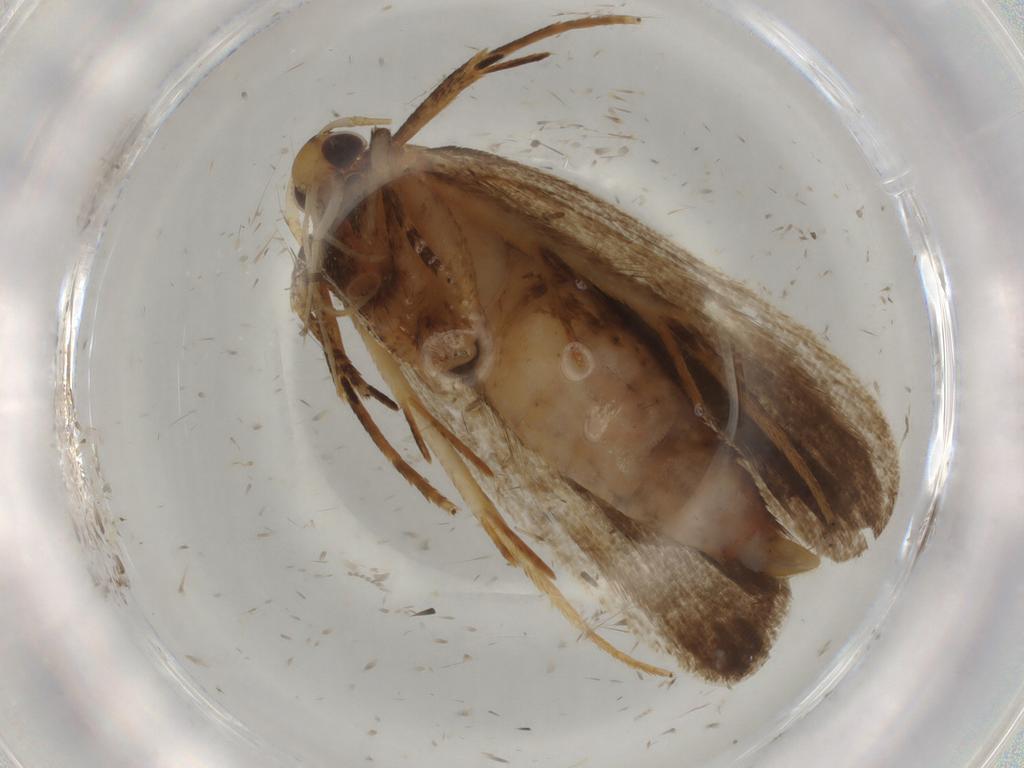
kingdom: Animalia
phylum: Arthropoda
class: Insecta
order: Lepidoptera
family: Autostichidae
